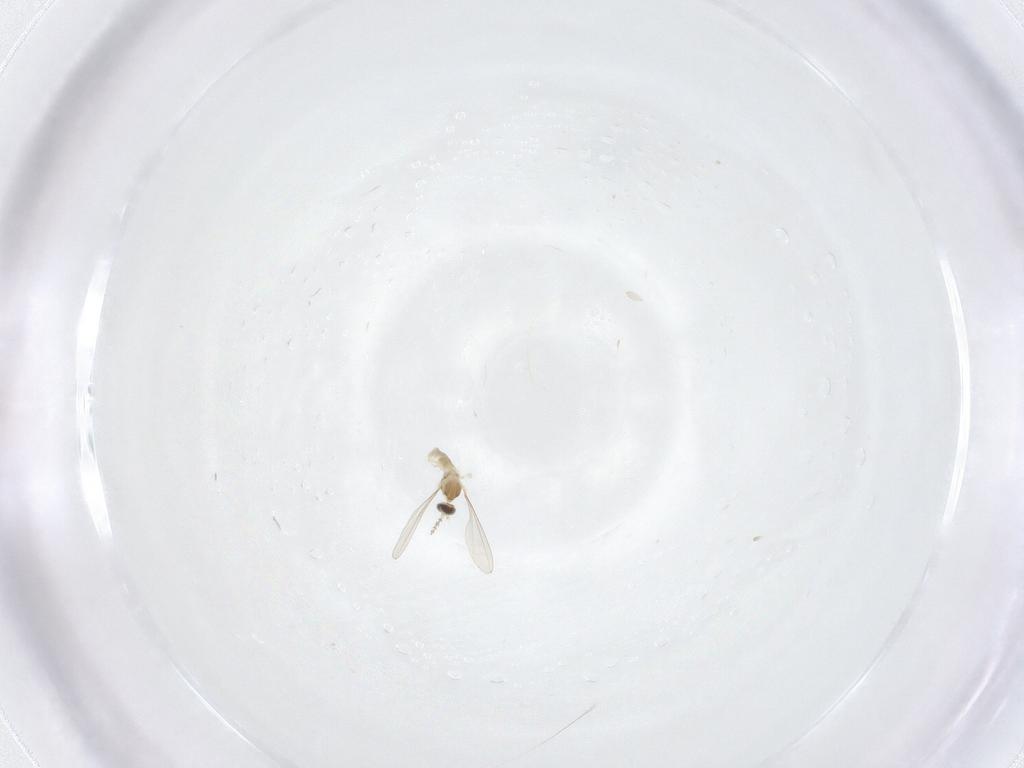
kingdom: Animalia
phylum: Arthropoda
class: Insecta
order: Diptera
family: Cecidomyiidae
